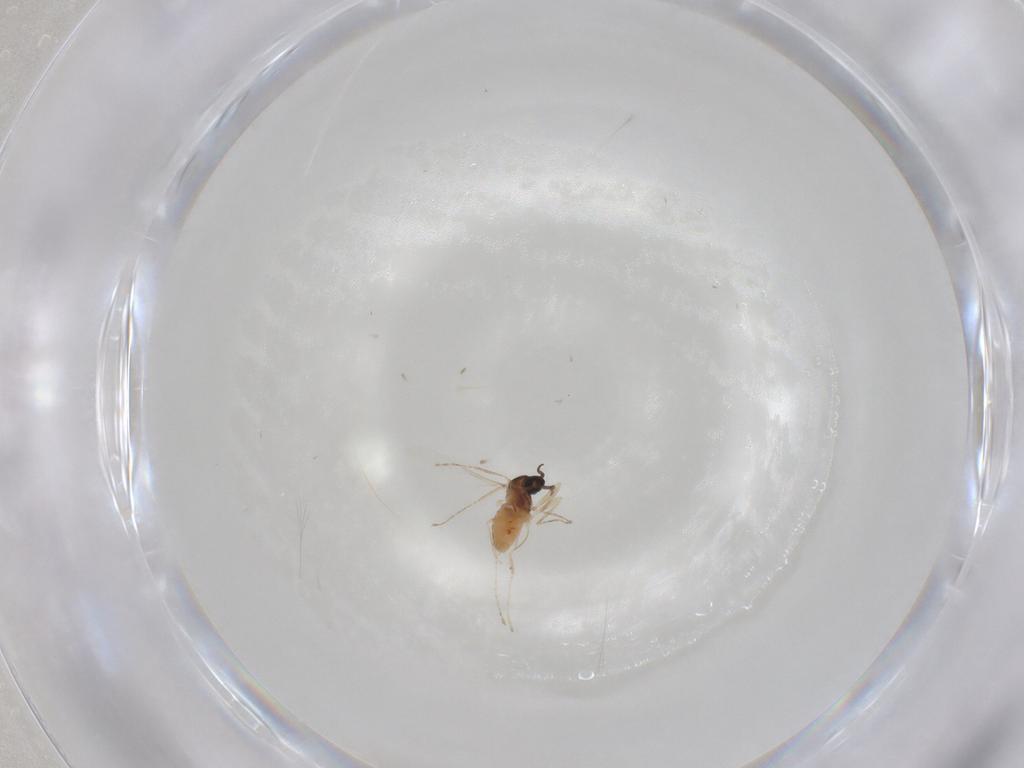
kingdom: Animalia
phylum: Arthropoda
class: Insecta
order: Diptera
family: Cecidomyiidae
